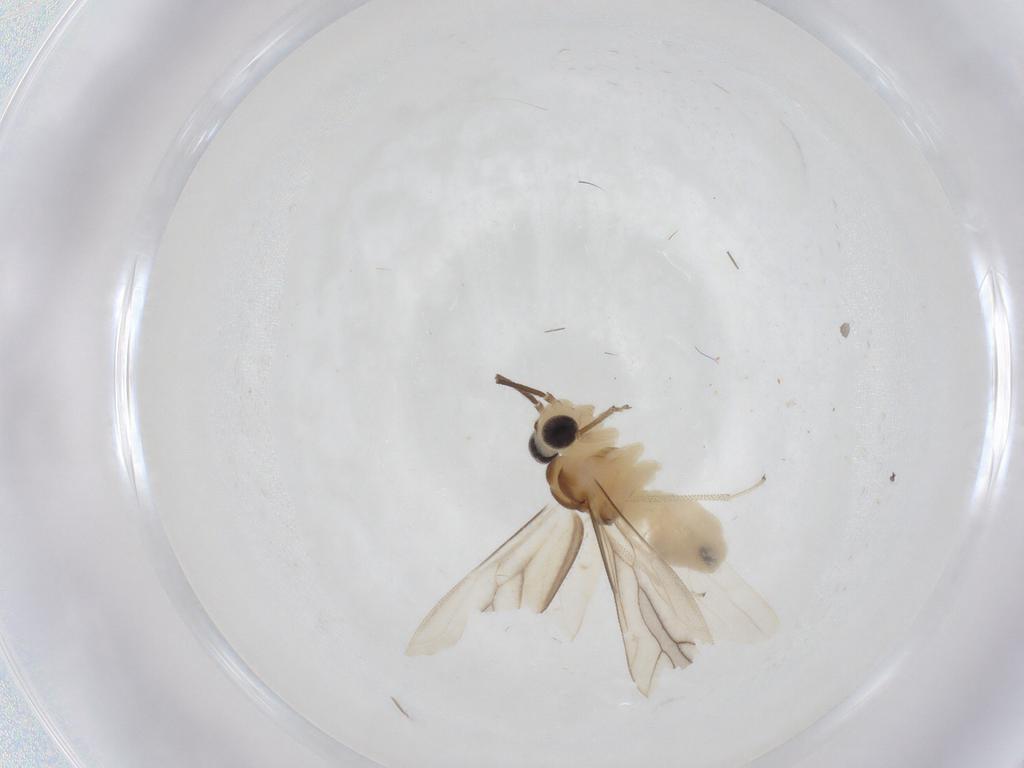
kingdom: Animalia
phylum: Arthropoda
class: Insecta
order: Psocodea
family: Caeciliusidae
